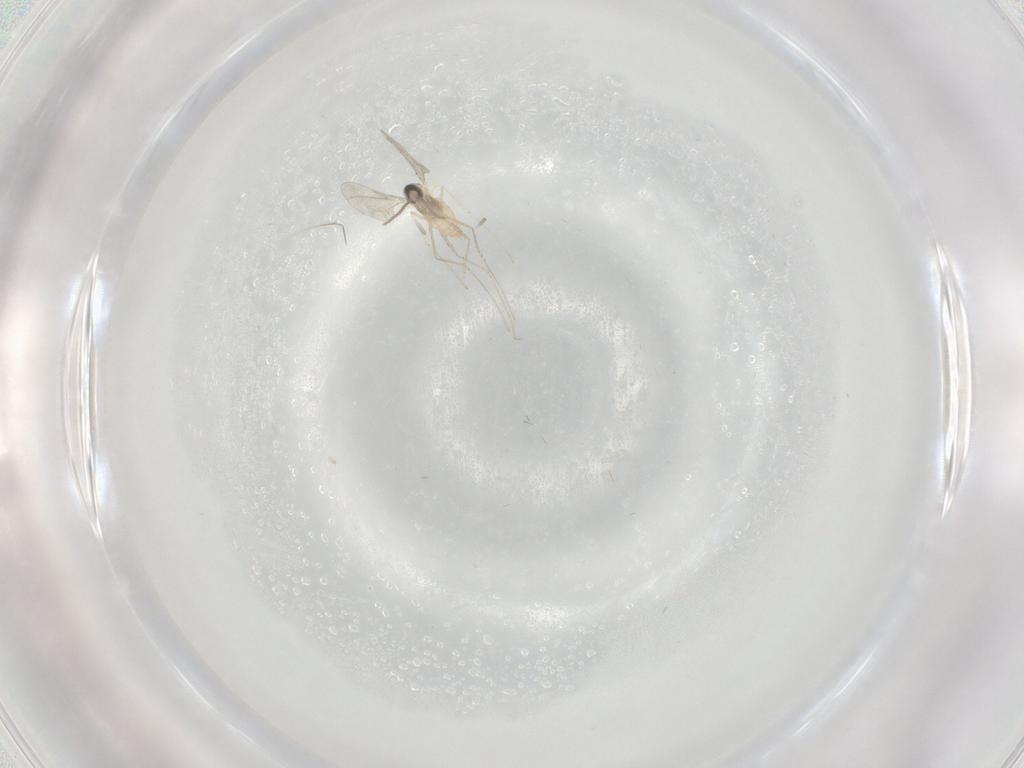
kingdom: Animalia
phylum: Arthropoda
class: Insecta
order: Diptera
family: Cecidomyiidae
